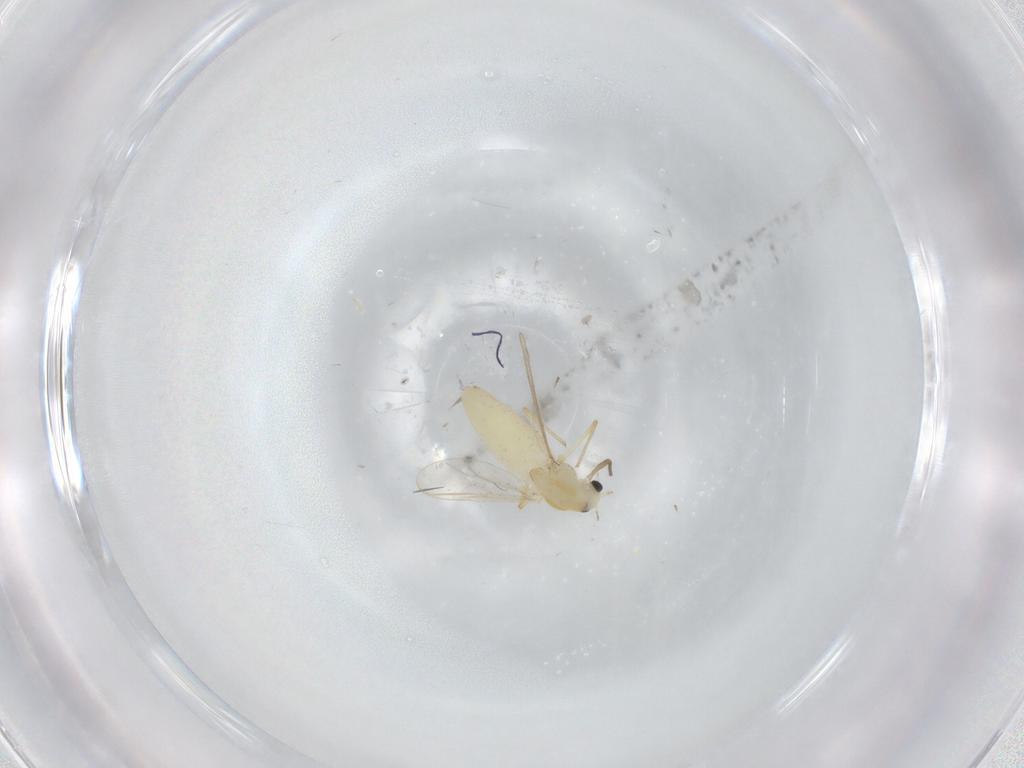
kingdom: Animalia
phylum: Arthropoda
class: Insecta
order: Diptera
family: Chironomidae
